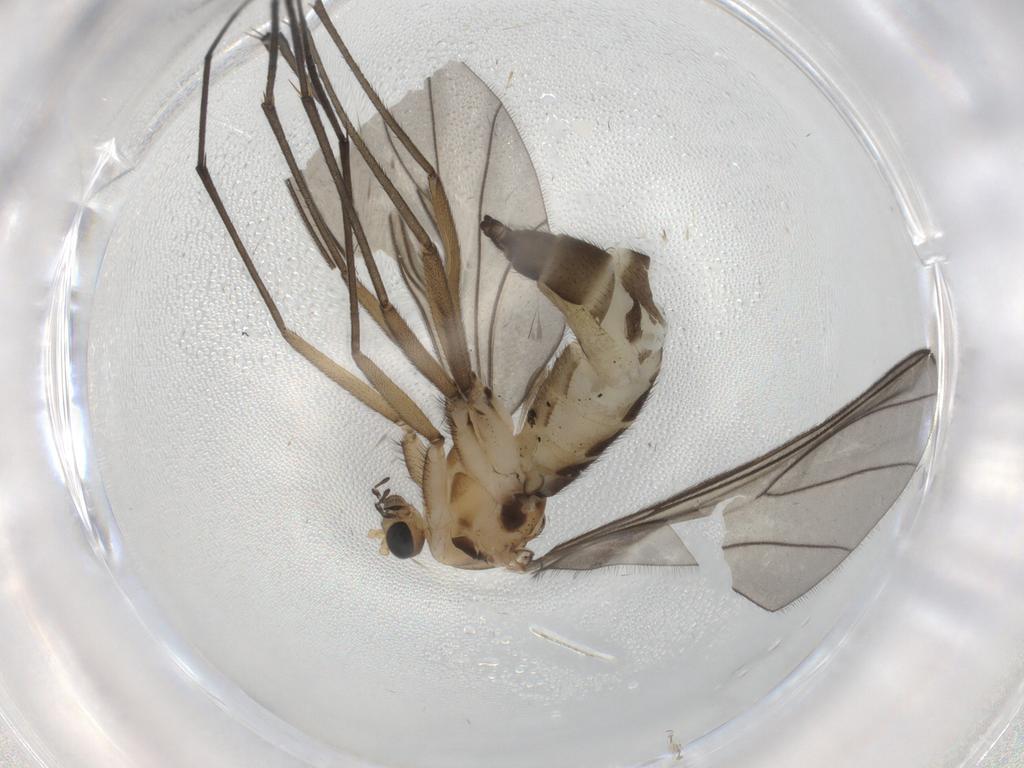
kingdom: Animalia
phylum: Arthropoda
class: Insecta
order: Diptera
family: Sciaridae
